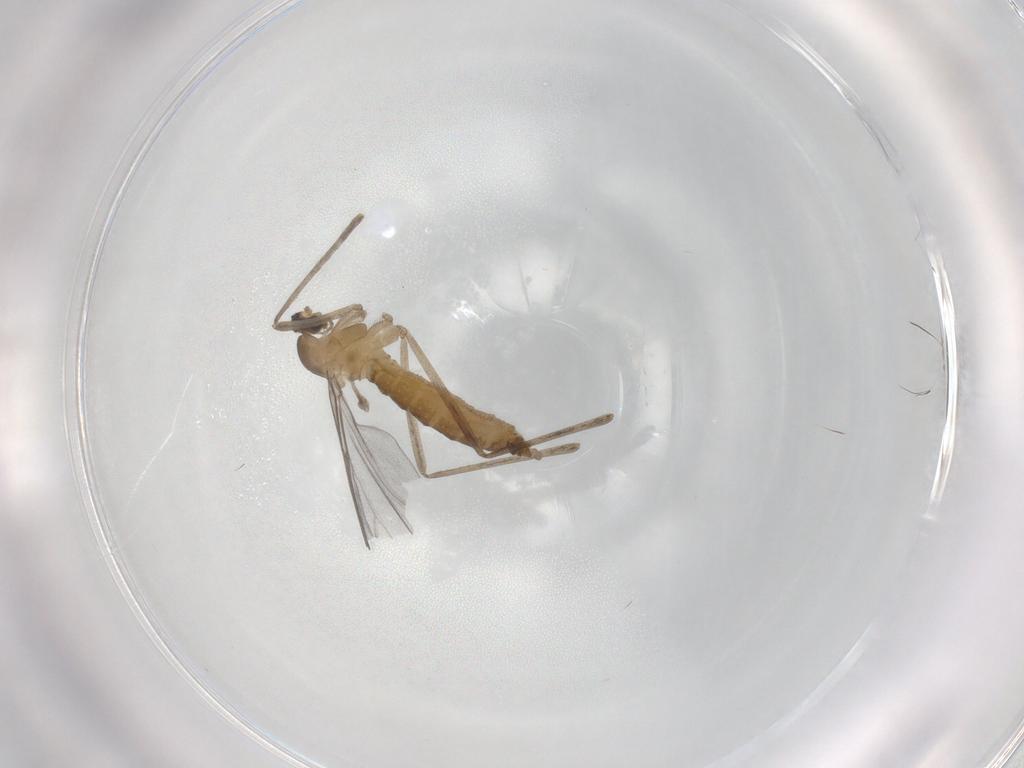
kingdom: Animalia
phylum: Arthropoda
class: Insecta
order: Diptera
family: Cecidomyiidae
